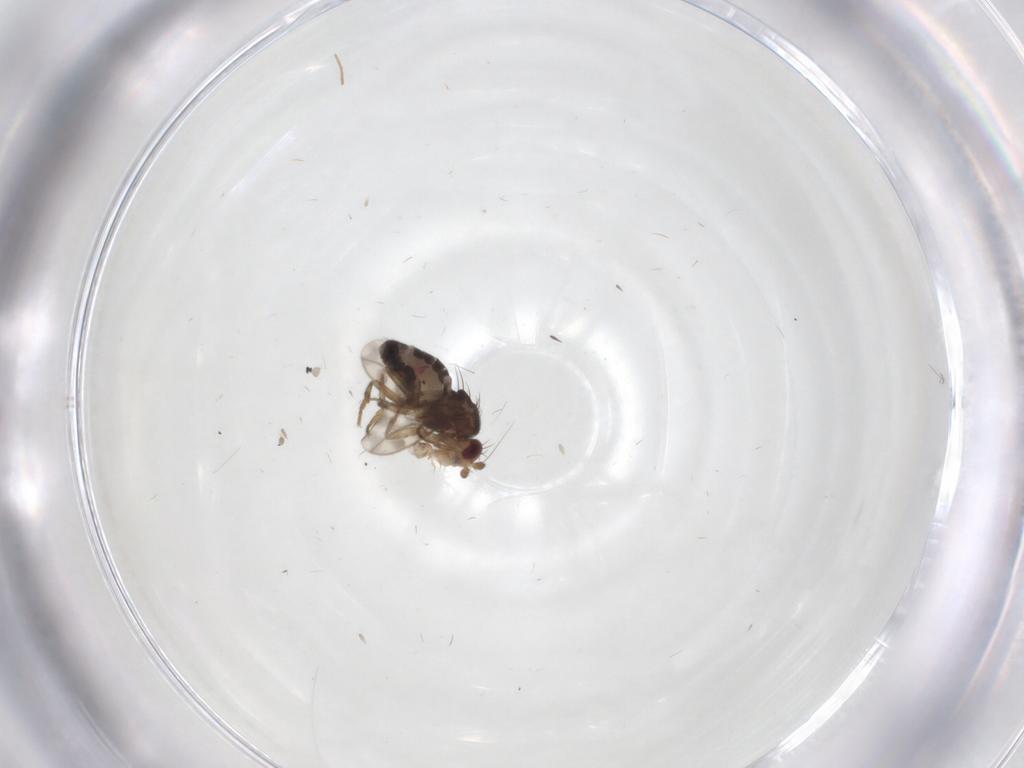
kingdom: Animalia
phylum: Arthropoda
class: Insecta
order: Diptera
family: Sphaeroceridae
